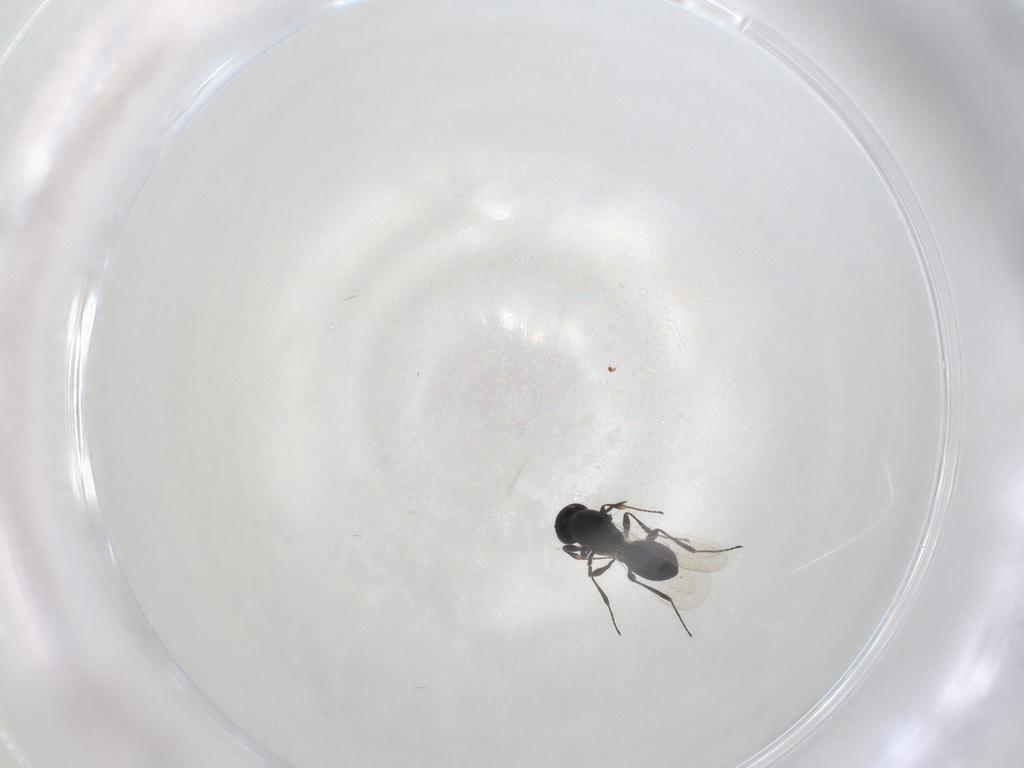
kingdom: Animalia
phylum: Arthropoda
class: Insecta
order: Hymenoptera
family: Platygastridae
